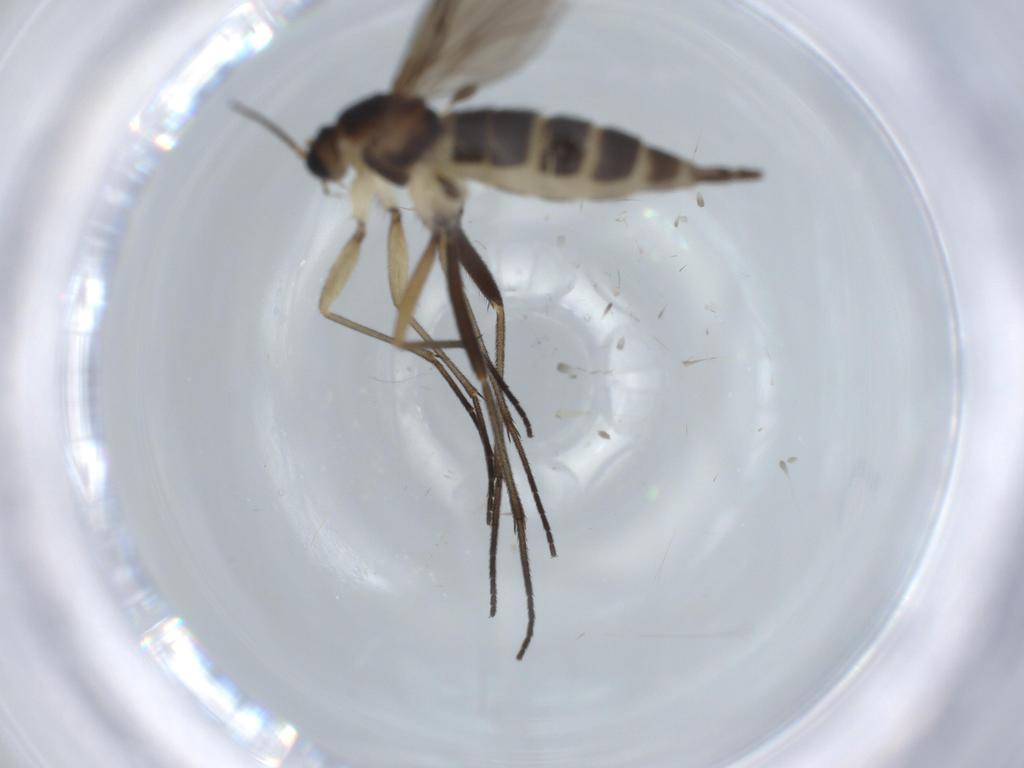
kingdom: Animalia
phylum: Arthropoda
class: Insecta
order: Diptera
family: Sciaridae
